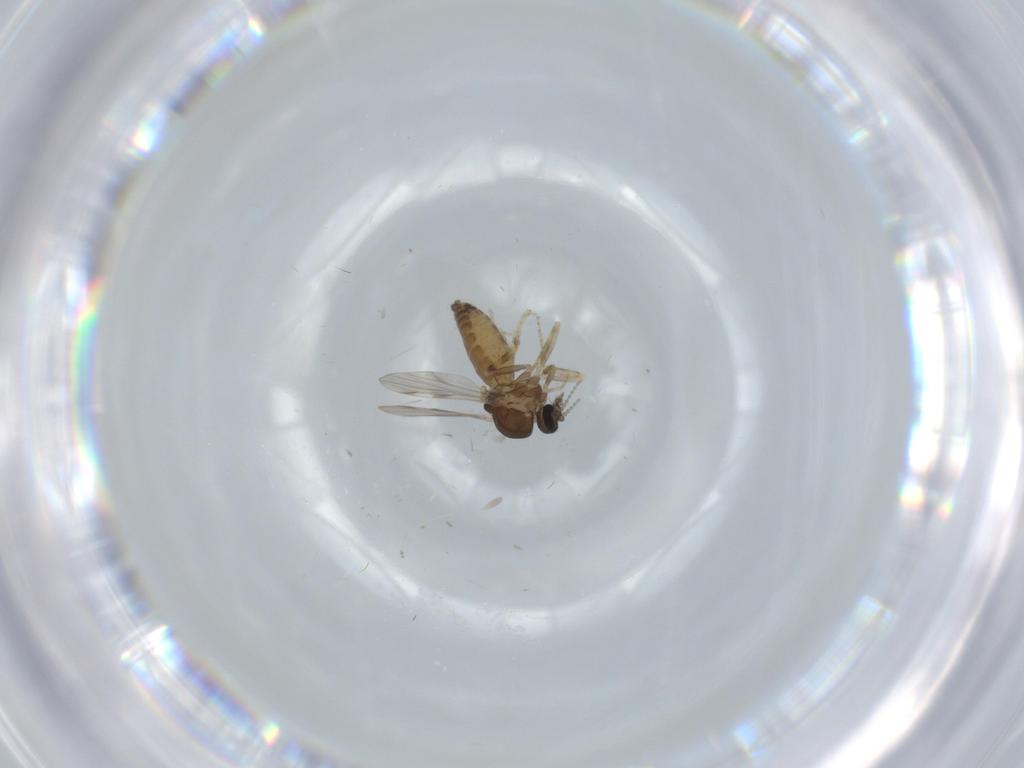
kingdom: Animalia
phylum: Arthropoda
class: Insecta
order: Diptera
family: Ceratopogonidae
